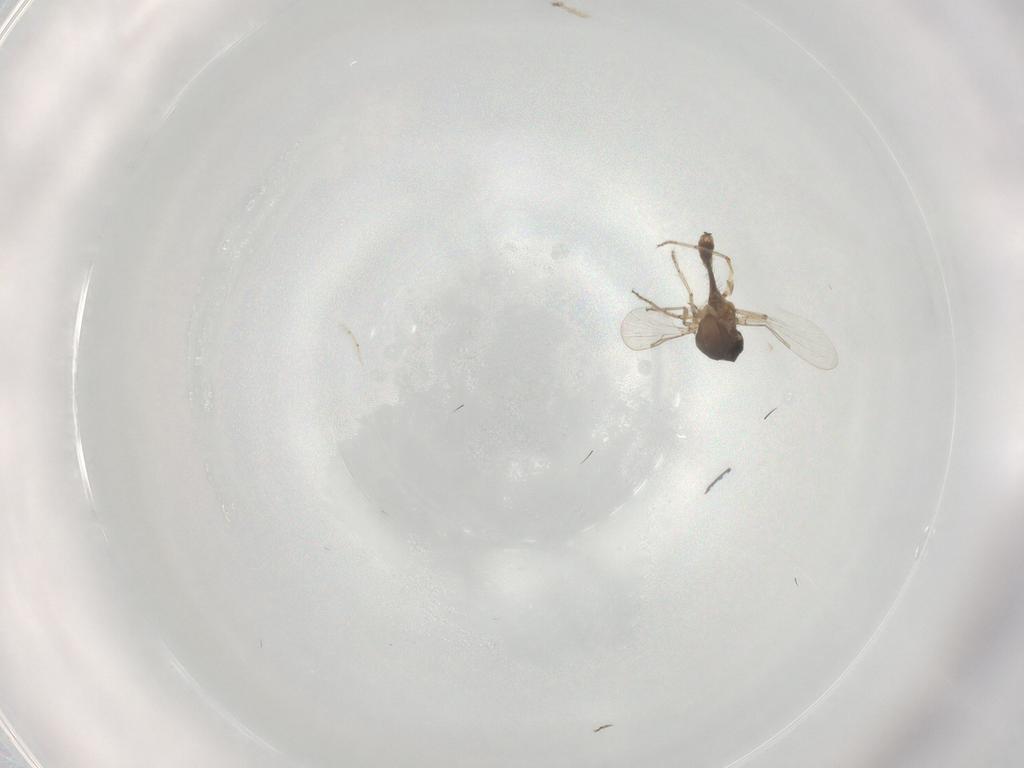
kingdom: Animalia
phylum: Arthropoda
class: Insecta
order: Diptera
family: Ceratopogonidae
